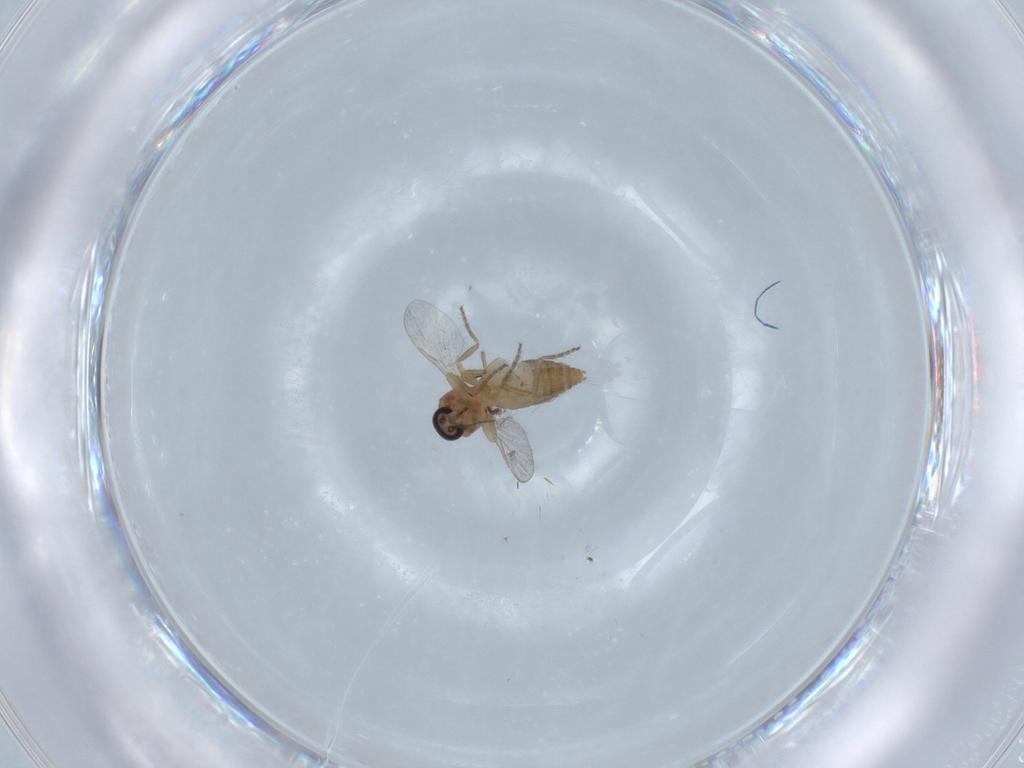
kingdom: Animalia
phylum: Arthropoda
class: Insecta
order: Diptera
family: Ceratopogonidae
